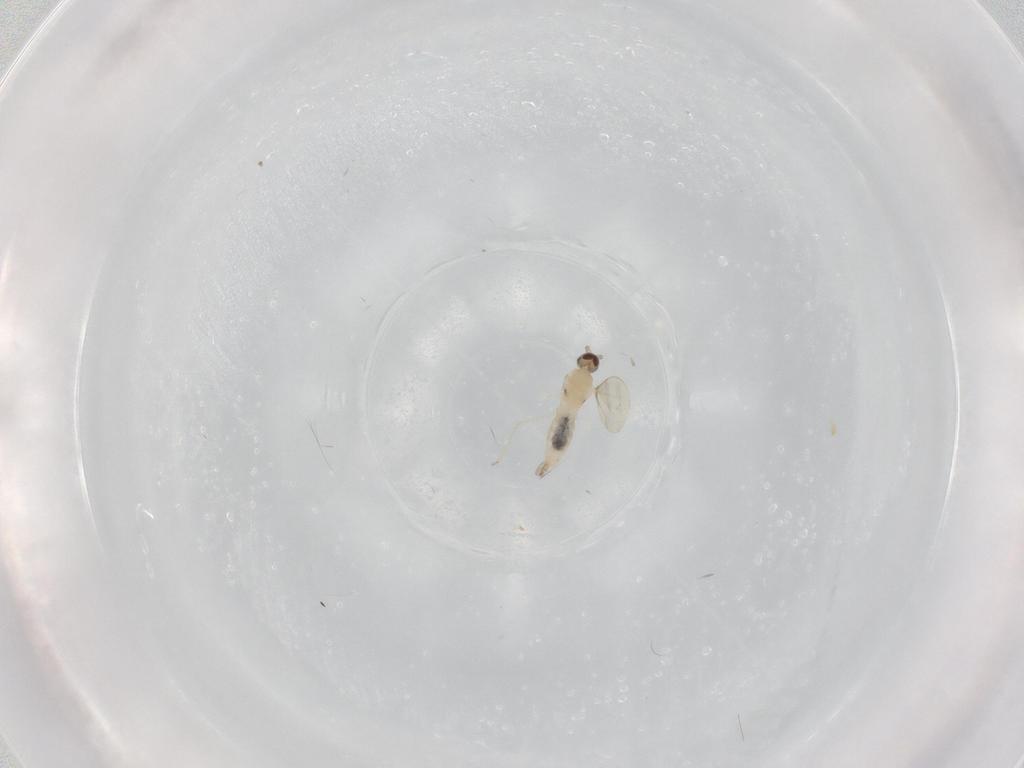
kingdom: Animalia
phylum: Arthropoda
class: Insecta
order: Diptera
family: Cecidomyiidae
